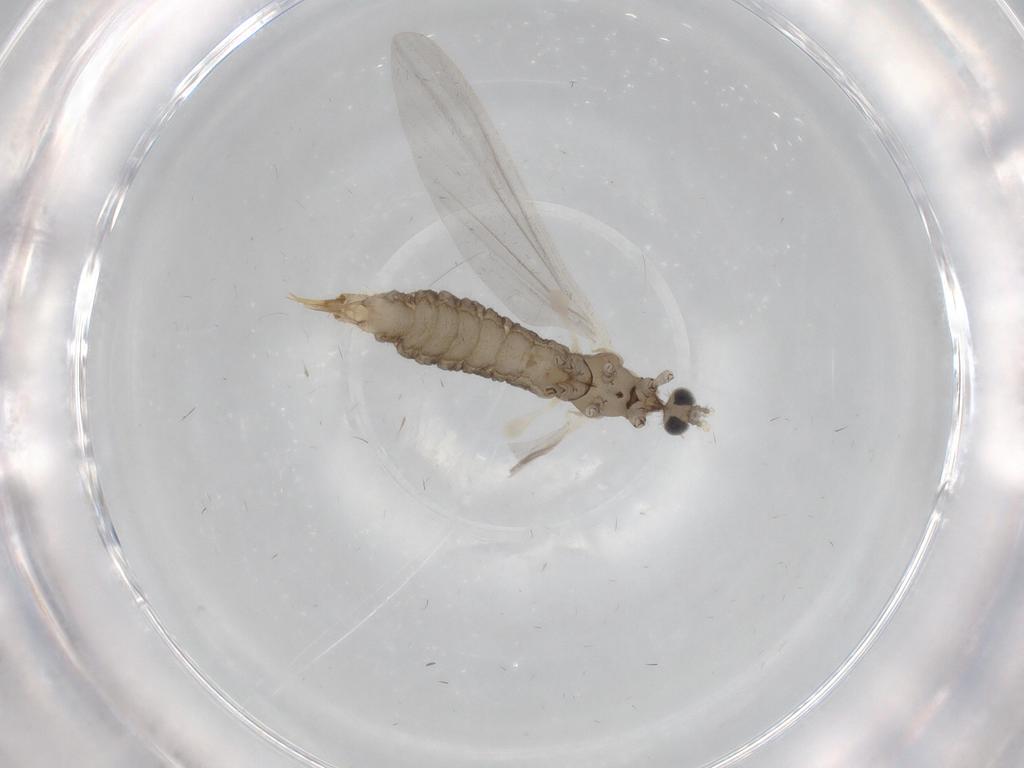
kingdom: Animalia
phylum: Arthropoda
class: Insecta
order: Diptera
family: Limoniidae
